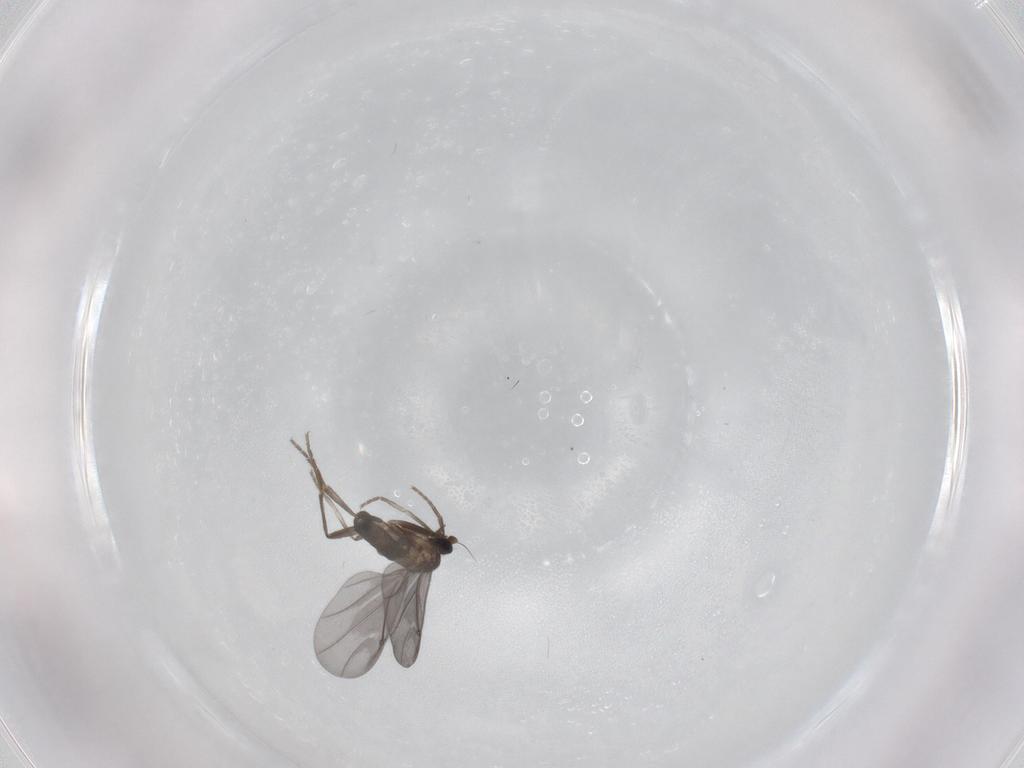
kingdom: Animalia
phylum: Arthropoda
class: Insecta
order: Diptera
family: Phoridae
